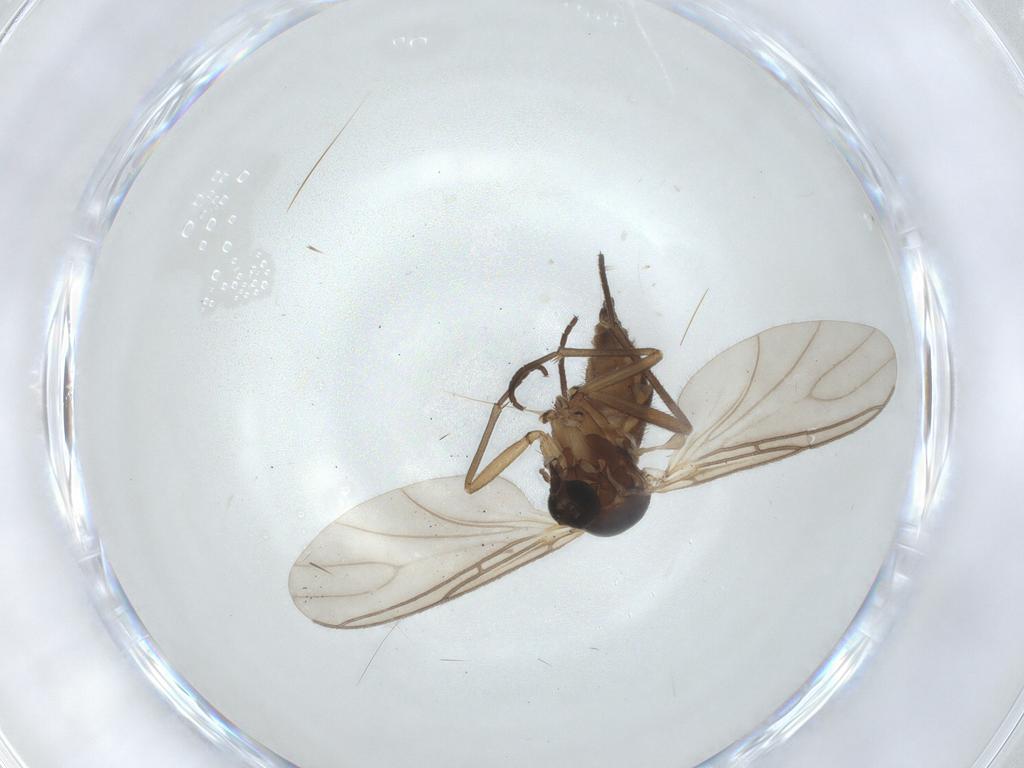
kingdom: Animalia
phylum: Arthropoda
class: Insecta
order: Diptera
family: Sciaridae
